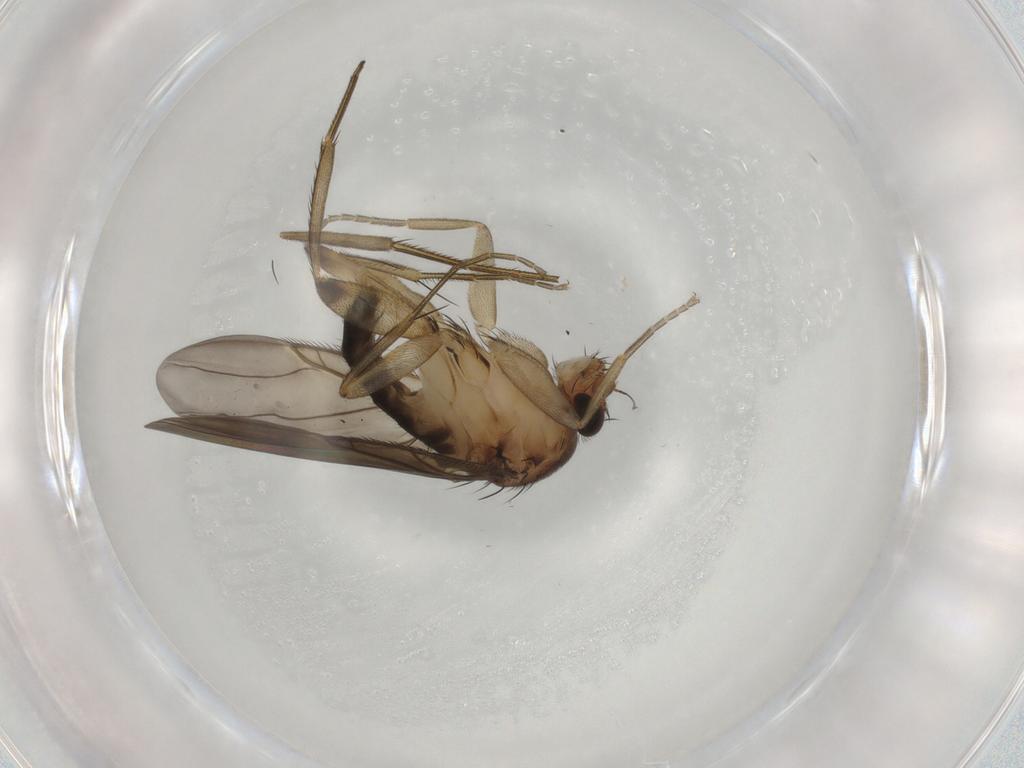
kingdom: Animalia
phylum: Arthropoda
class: Insecta
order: Diptera
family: Phoridae
